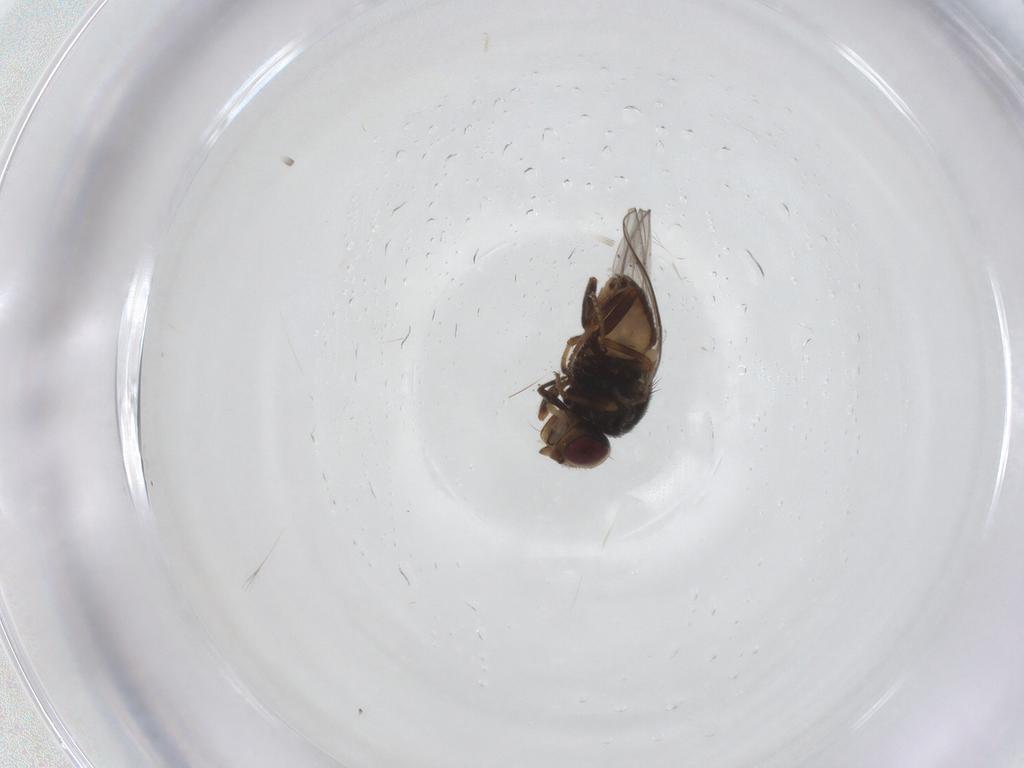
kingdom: Animalia
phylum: Arthropoda
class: Insecta
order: Diptera
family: Chloropidae
